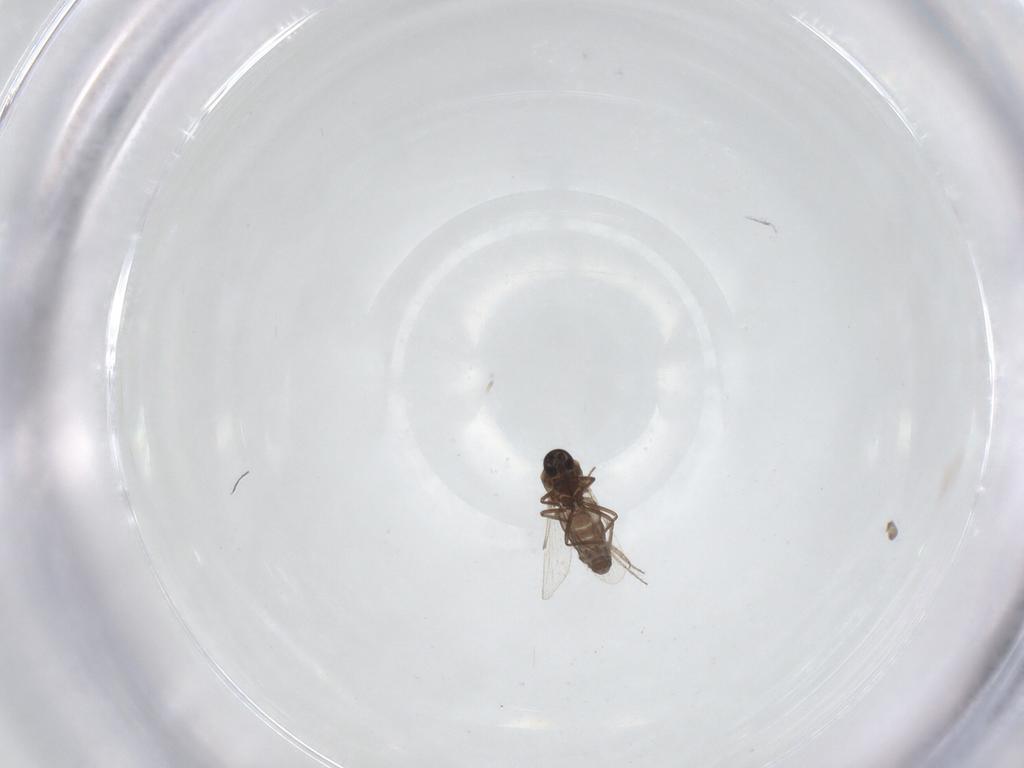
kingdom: Animalia
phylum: Arthropoda
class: Insecta
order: Diptera
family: Ceratopogonidae
